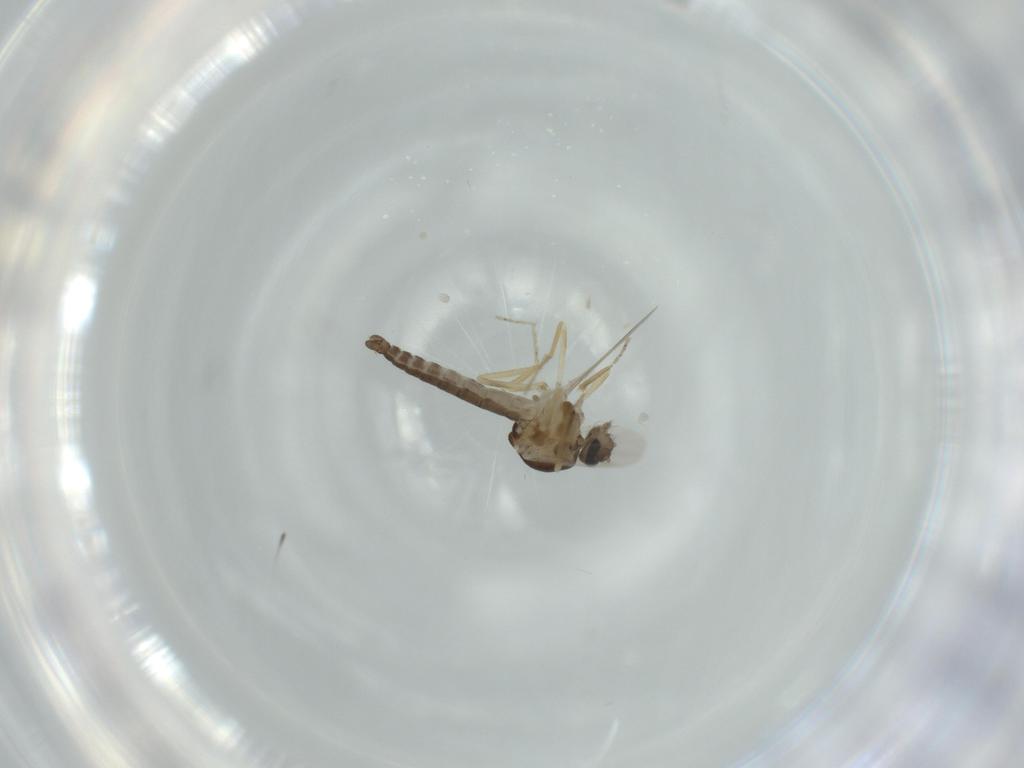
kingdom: Animalia
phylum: Arthropoda
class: Insecta
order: Diptera
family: Ceratopogonidae
